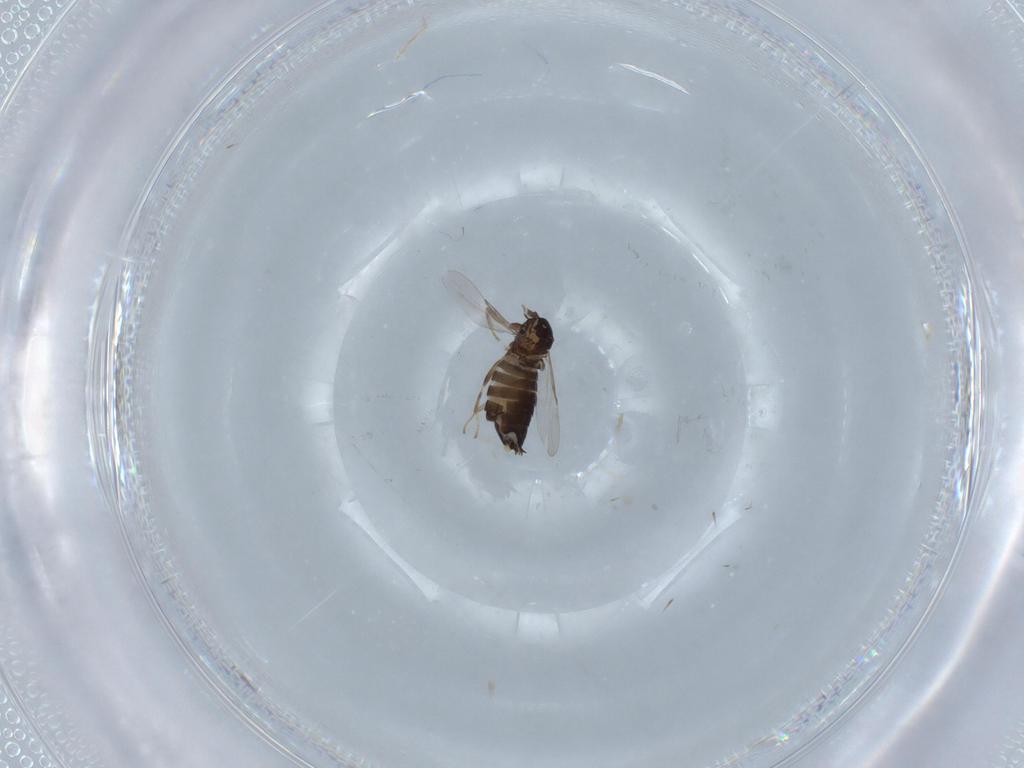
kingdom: Animalia
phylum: Arthropoda
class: Insecta
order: Diptera
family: Scatopsidae
